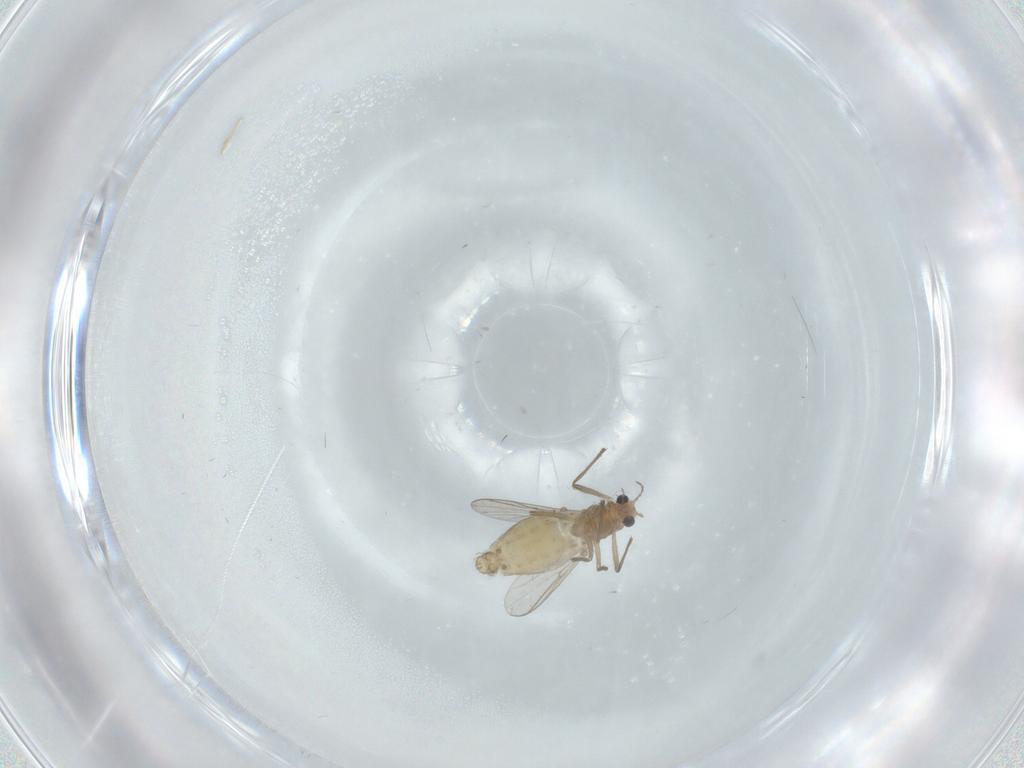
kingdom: Animalia
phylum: Arthropoda
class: Insecta
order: Diptera
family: Chironomidae
